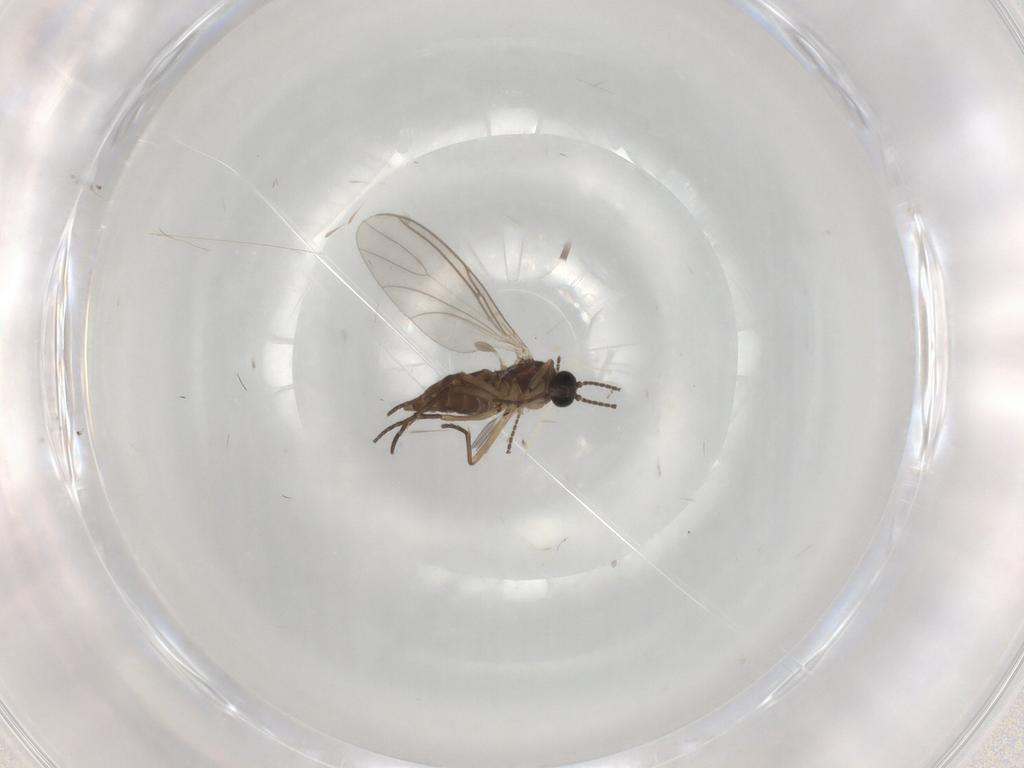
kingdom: Animalia
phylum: Arthropoda
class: Insecta
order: Diptera
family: Sciaridae
